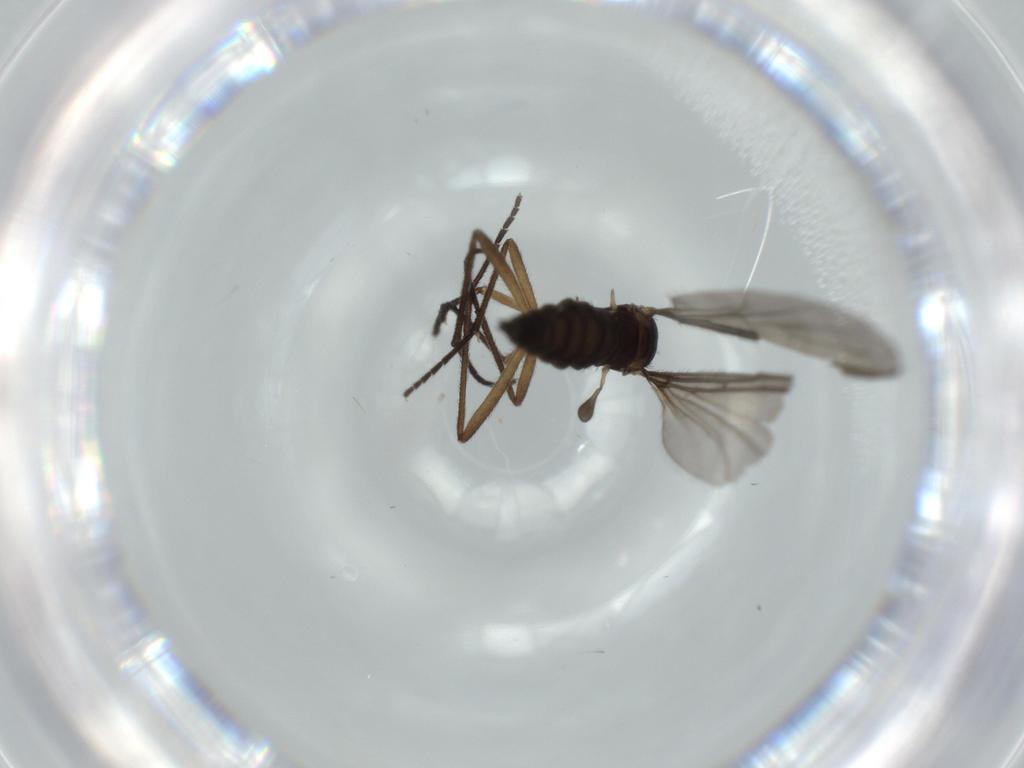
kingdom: Animalia
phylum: Arthropoda
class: Insecta
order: Diptera
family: Sciaridae
